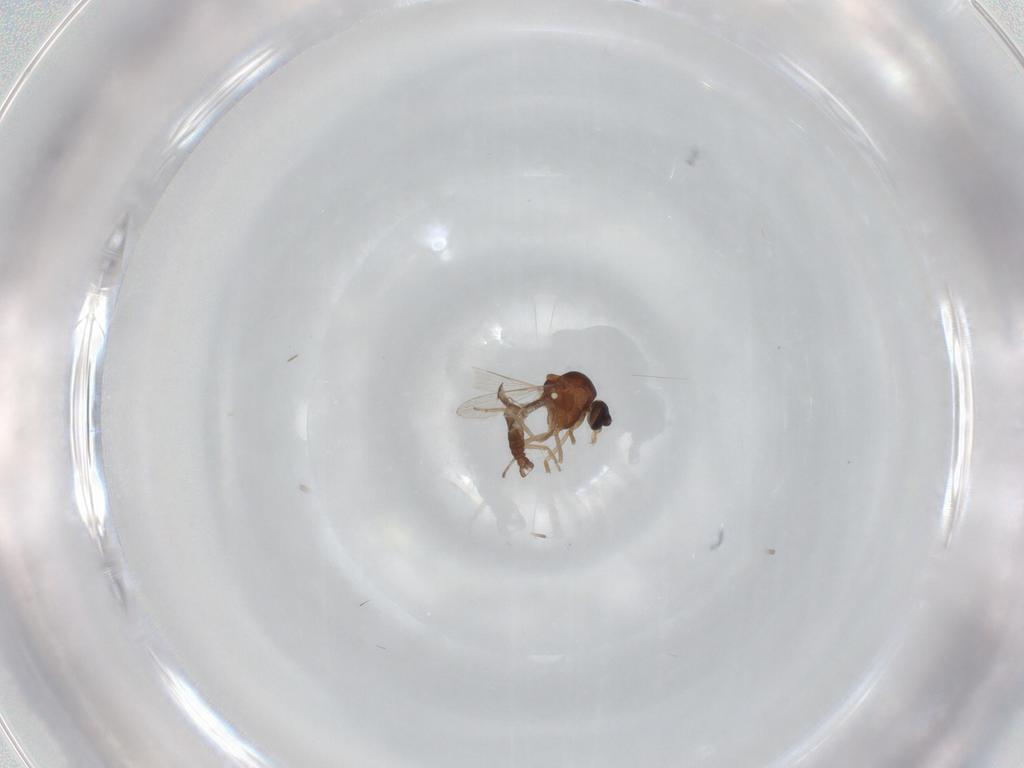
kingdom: Animalia
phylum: Arthropoda
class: Insecta
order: Diptera
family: Ceratopogonidae
